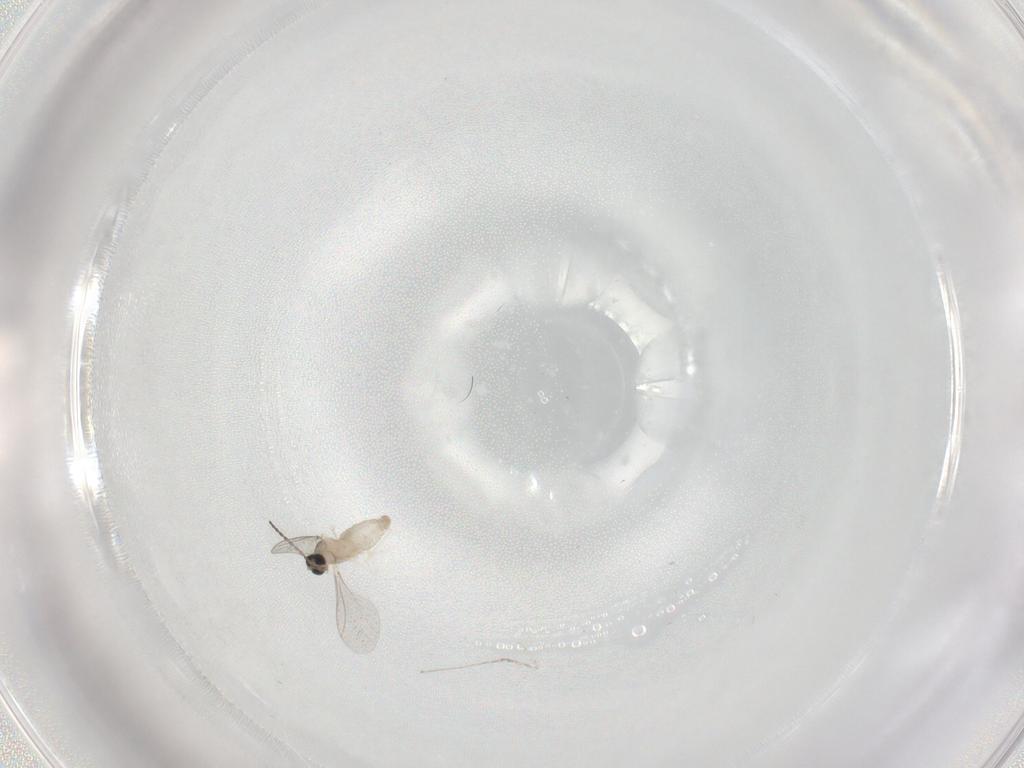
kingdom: Animalia
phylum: Arthropoda
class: Insecta
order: Diptera
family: Cecidomyiidae
